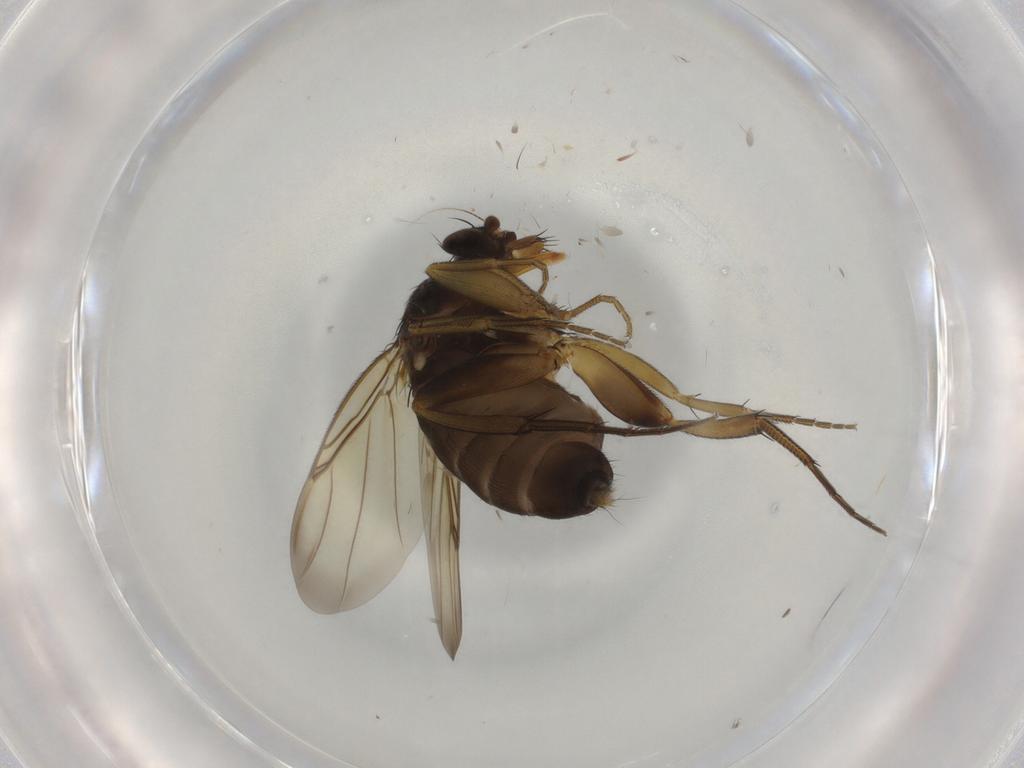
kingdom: Animalia
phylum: Arthropoda
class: Insecta
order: Diptera
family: Phoridae
